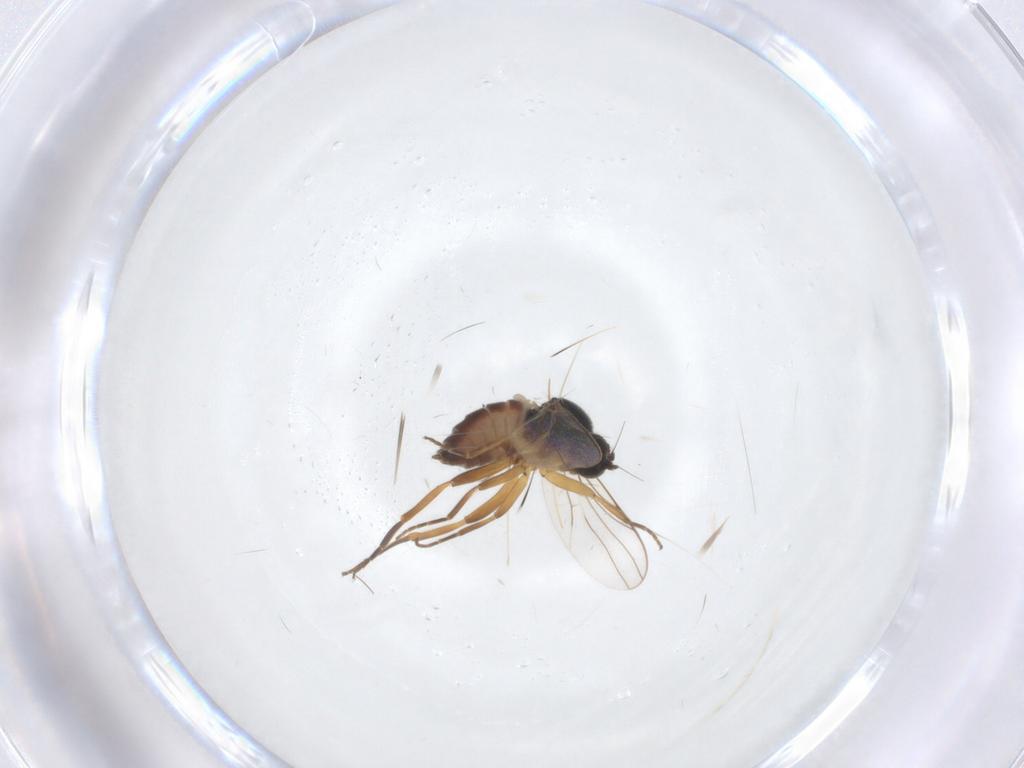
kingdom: Animalia
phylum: Arthropoda
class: Insecta
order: Diptera
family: Hybotidae
